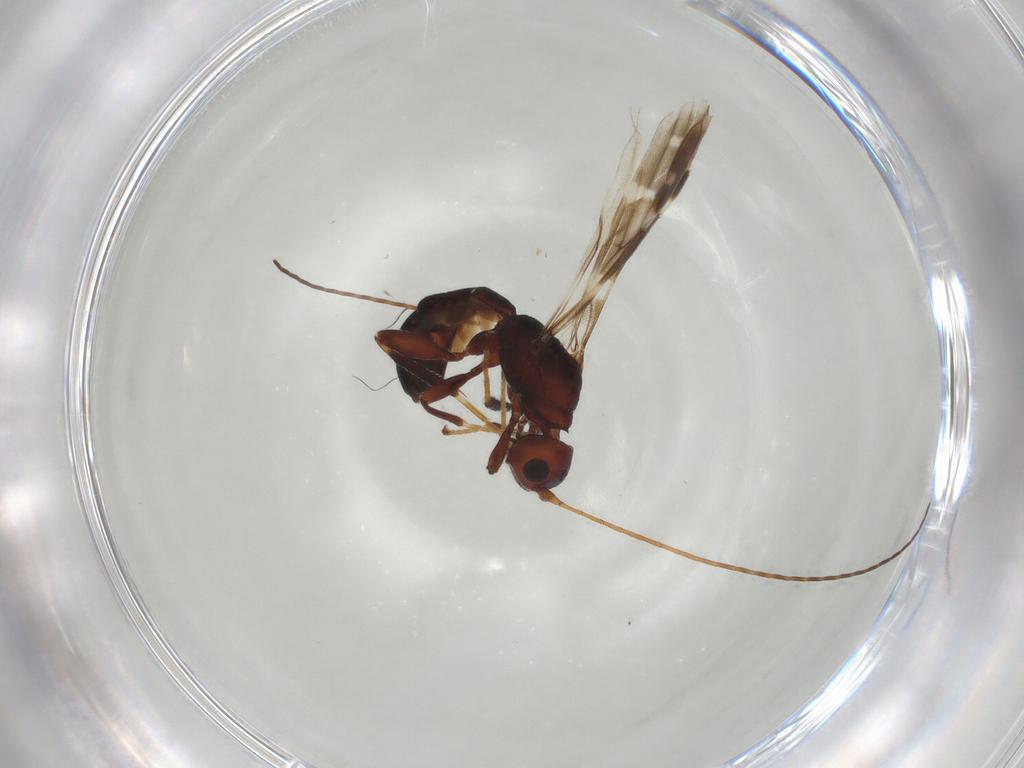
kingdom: Animalia
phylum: Arthropoda
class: Insecta
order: Hymenoptera
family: Braconidae
